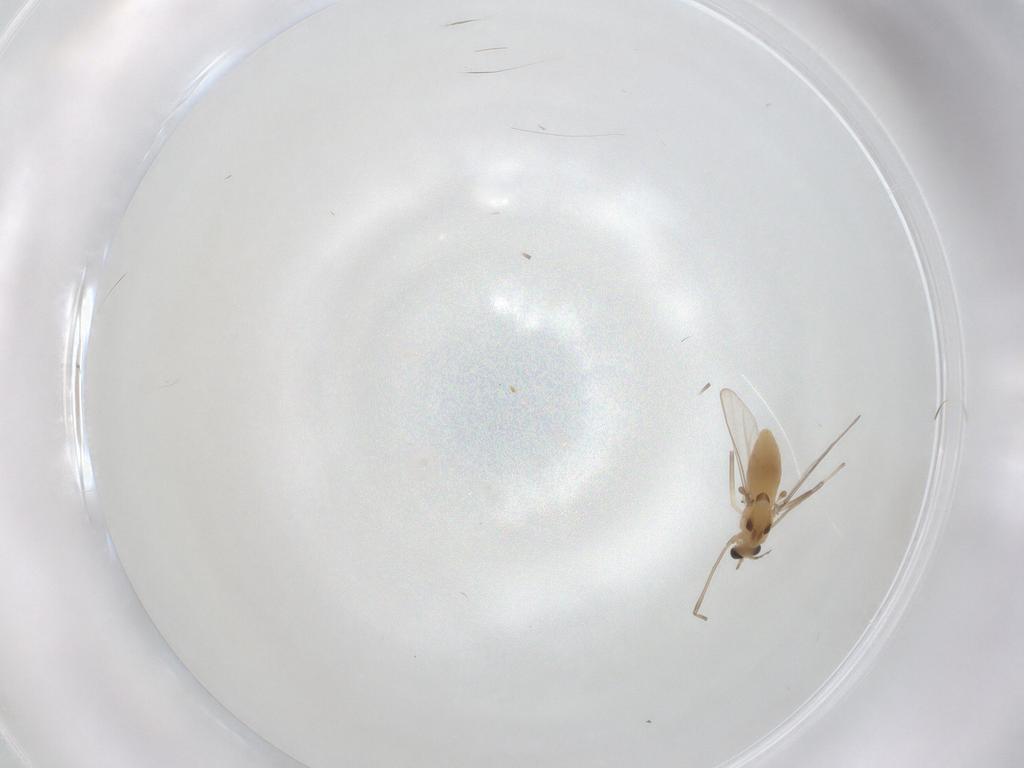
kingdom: Animalia
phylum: Arthropoda
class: Insecta
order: Diptera
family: Chironomidae
